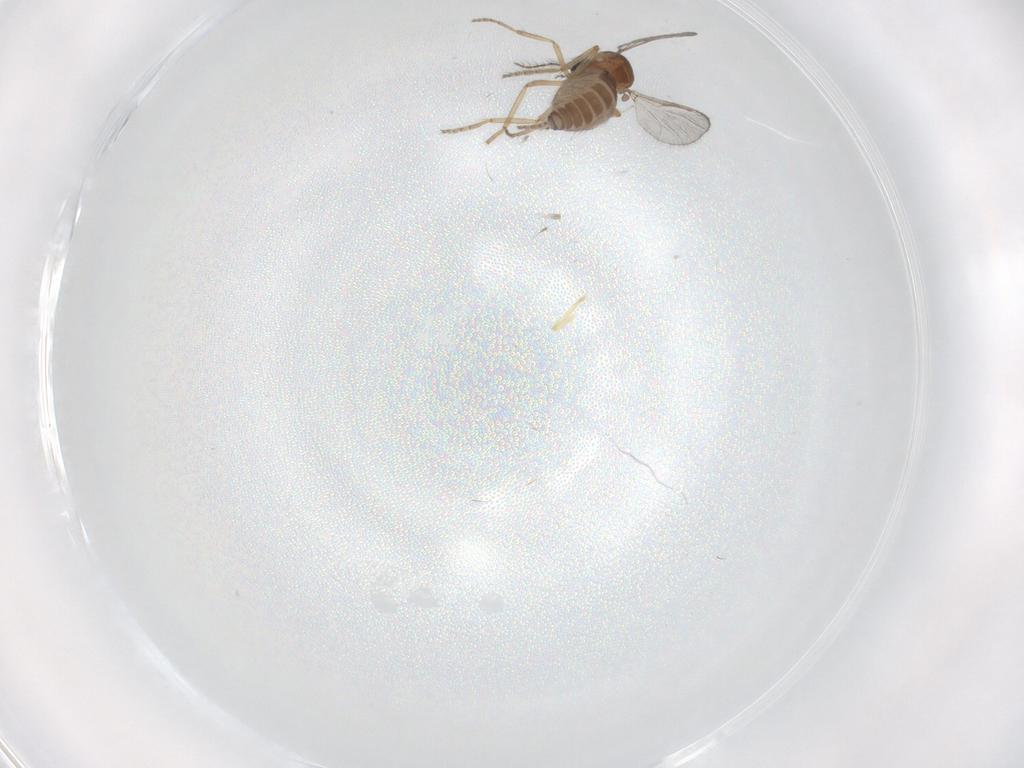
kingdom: Animalia
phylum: Arthropoda
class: Insecta
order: Diptera
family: Ceratopogonidae
